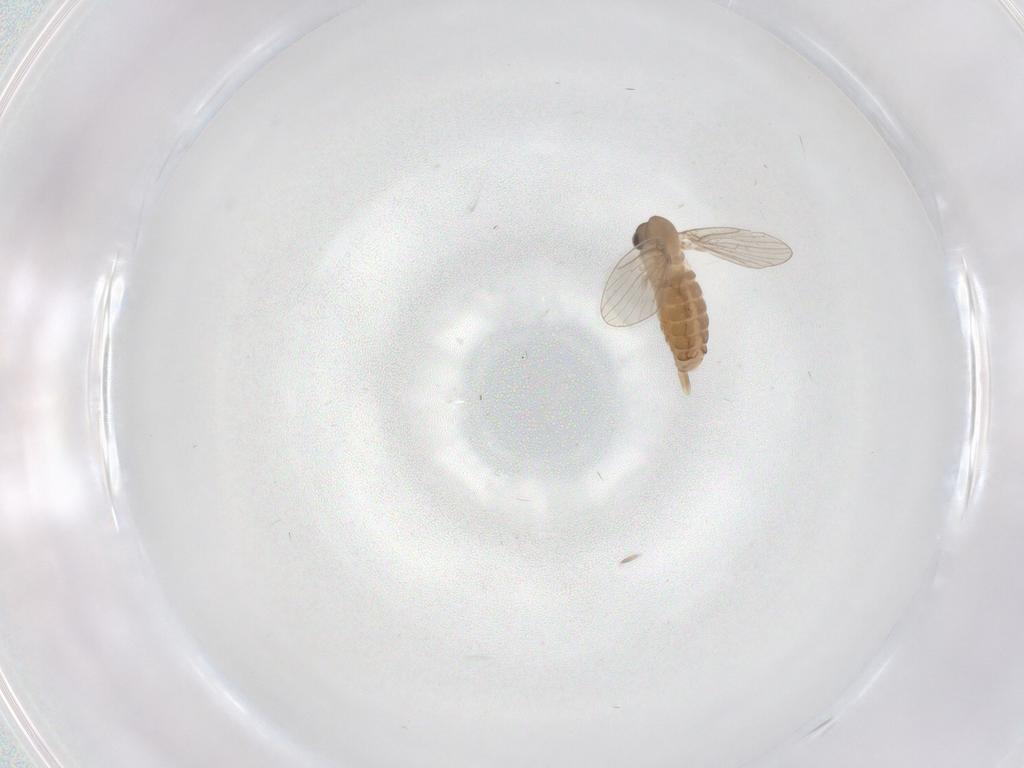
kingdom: Animalia
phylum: Arthropoda
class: Insecta
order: Diptera
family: Psychodidae
